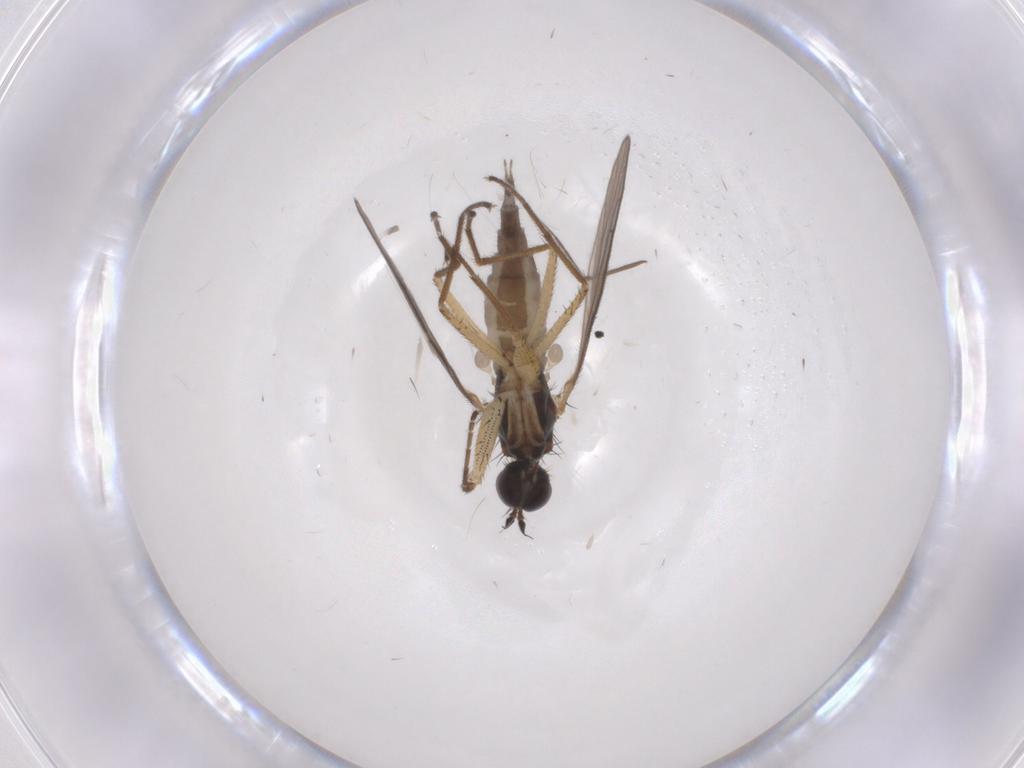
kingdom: Animalia
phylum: Arthropoda
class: Insecta
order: Diptera
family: Ceratopogonidae
